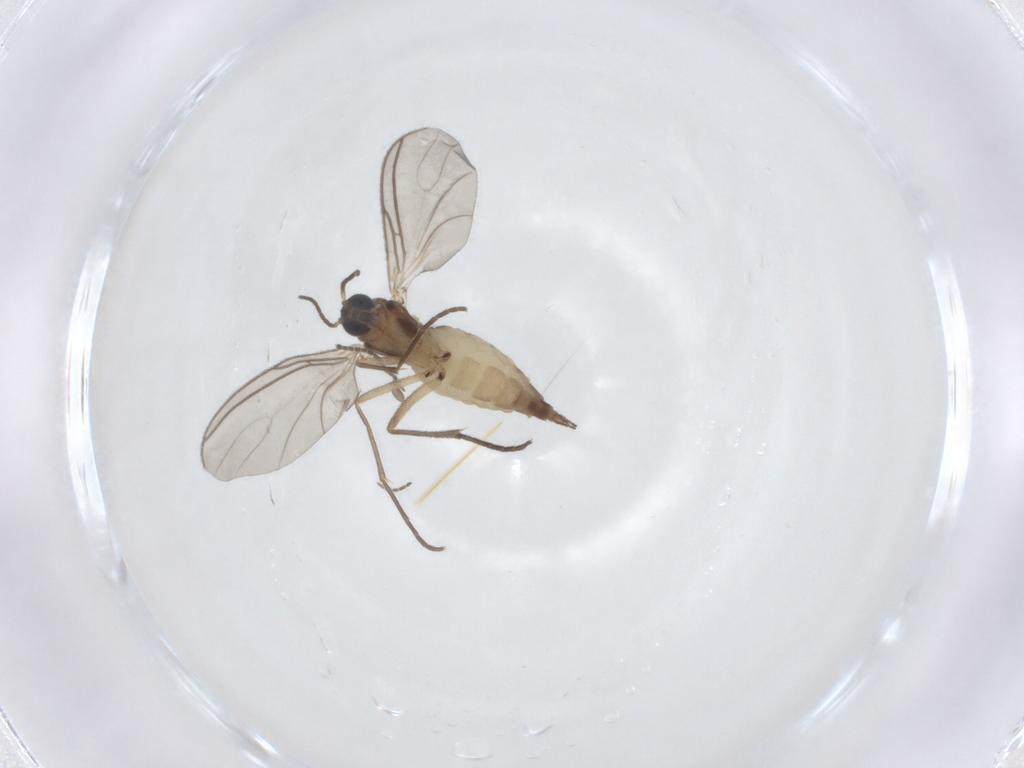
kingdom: Animalia
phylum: Arthropoda
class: Insecta
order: Diptera
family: Sciaridae
